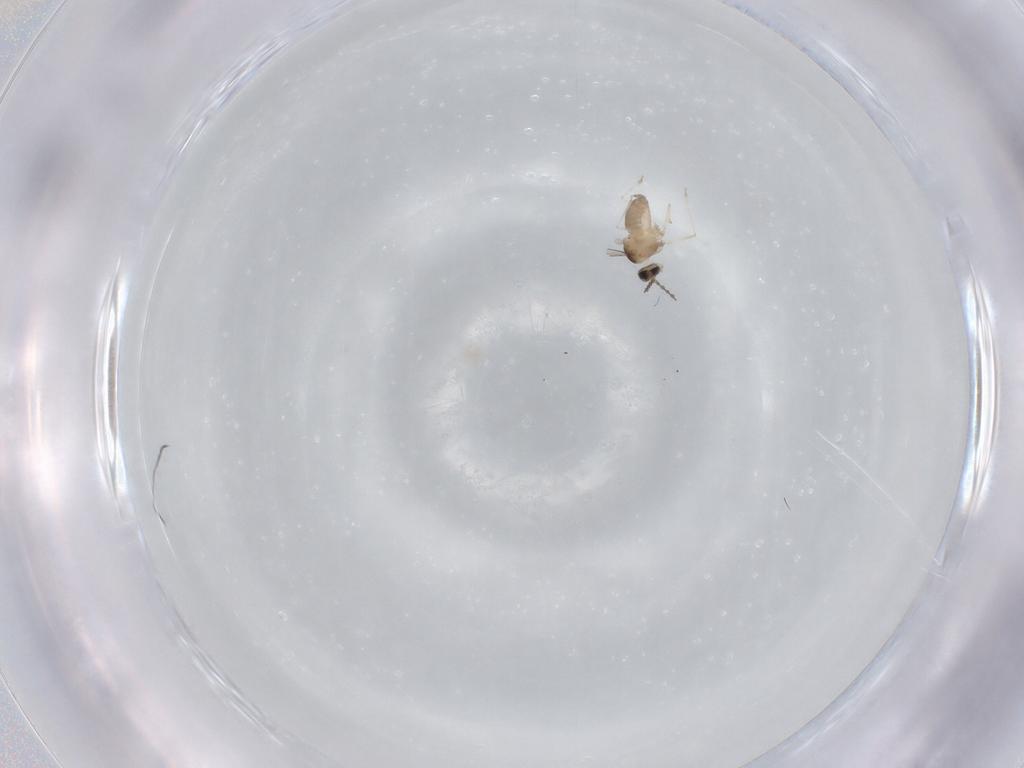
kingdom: Animalia
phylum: Arthropoda
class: Insecta
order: Diptera
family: Cecidomyiidae
